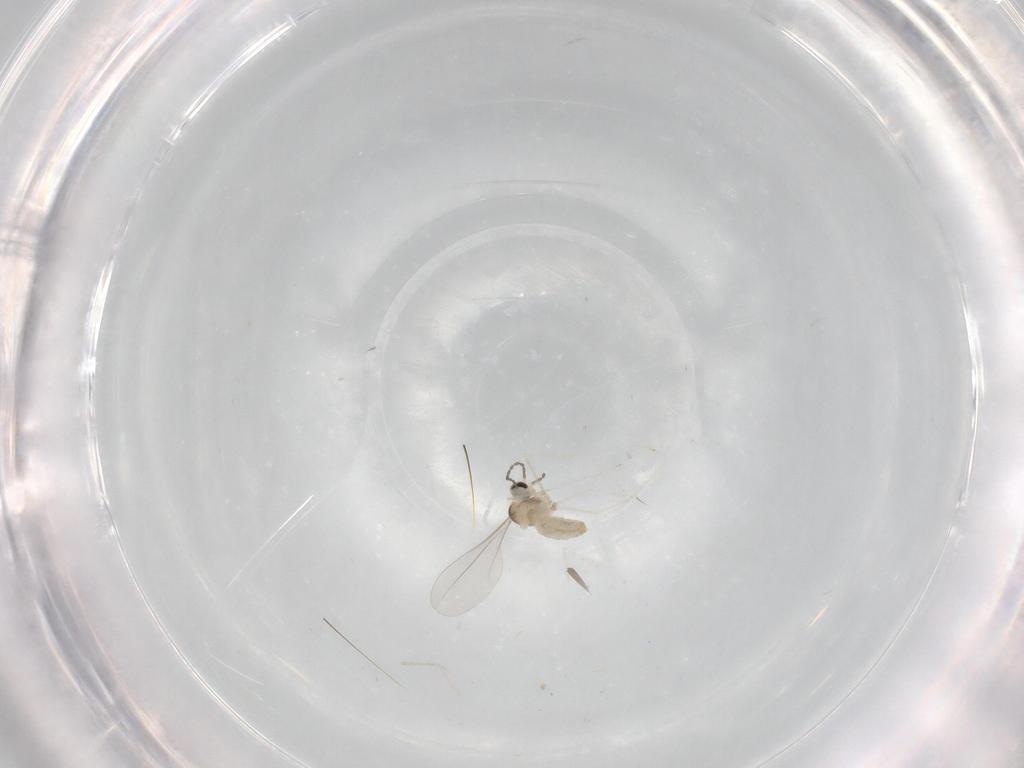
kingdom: Animalia
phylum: Arthropoda
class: Insecta
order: Diptera
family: Cecidomyiidae
